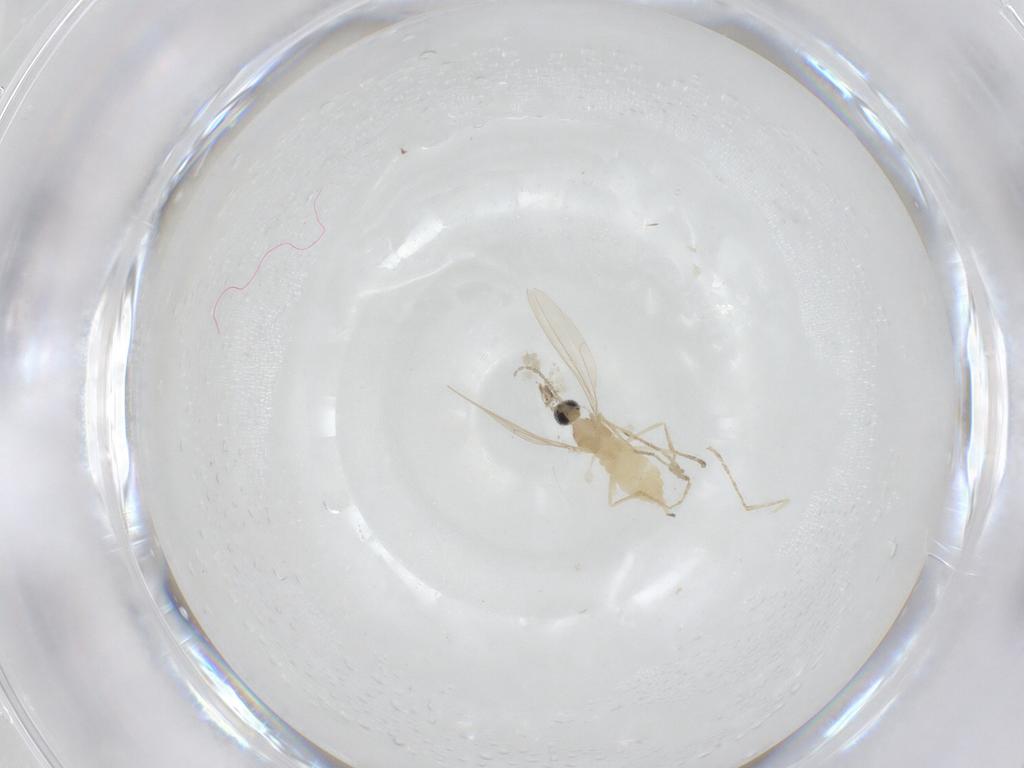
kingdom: Animalia
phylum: Arthropoda
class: Insecta
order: Diptera
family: Cecidomyiidae
